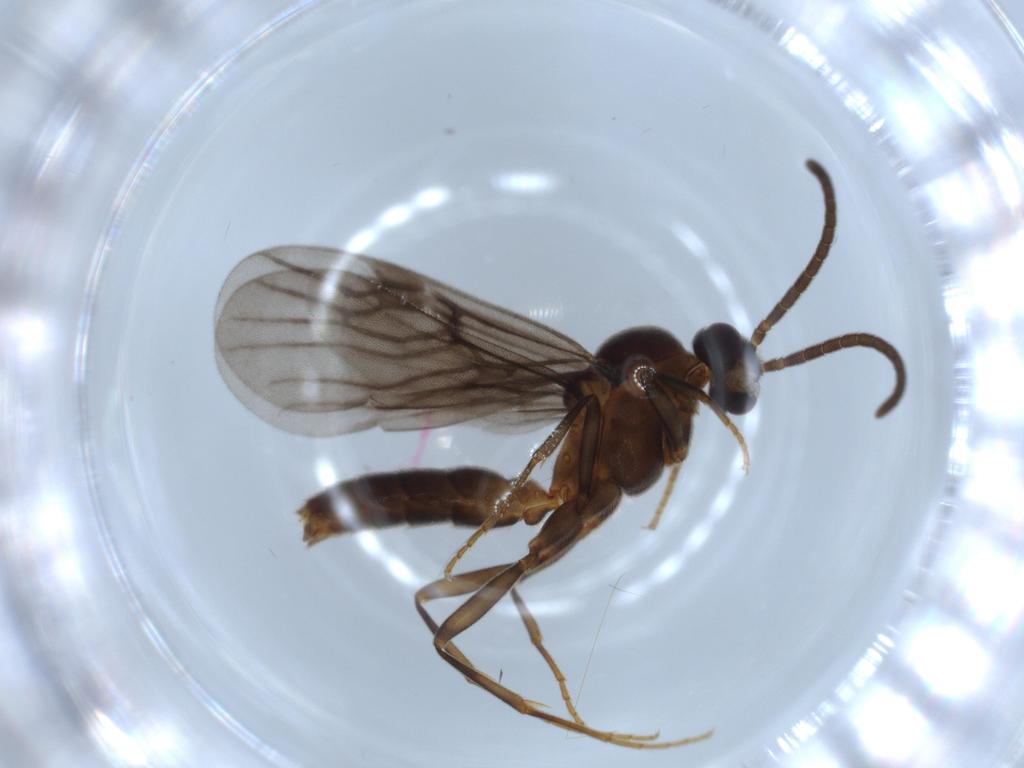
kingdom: Animalia
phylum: Arthropoda
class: Insecta
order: Hymenoptera
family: Formicidae
